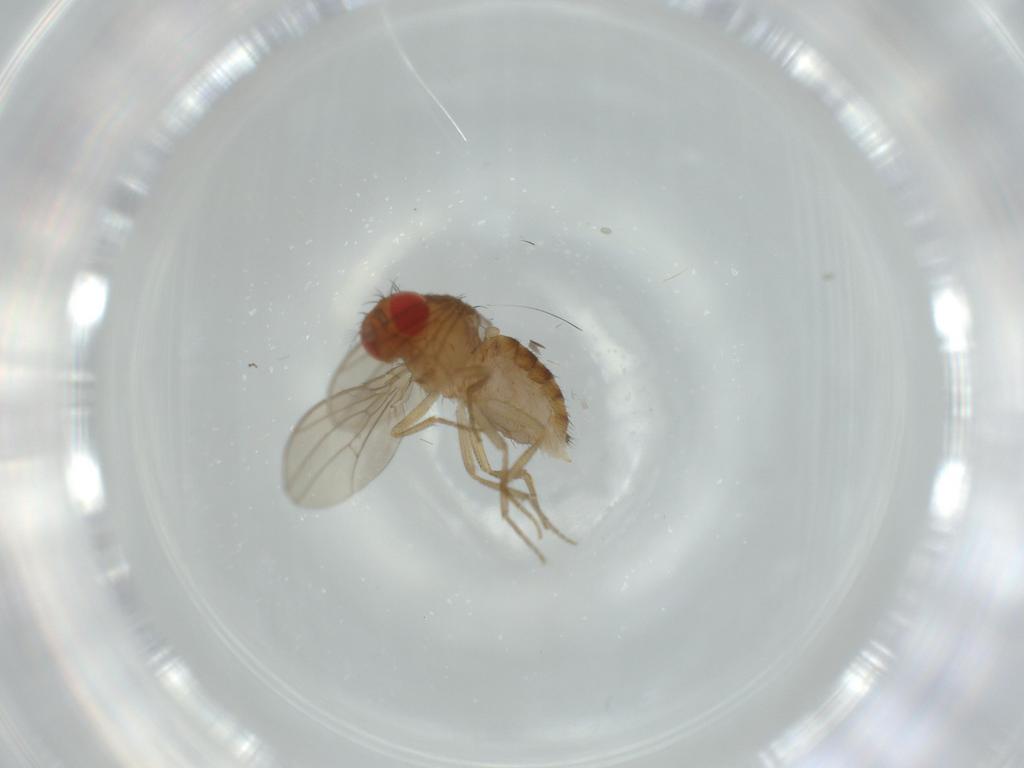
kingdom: Animalia
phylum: Arthropoda
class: Insecta
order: Diptera
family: Drosophilidae
